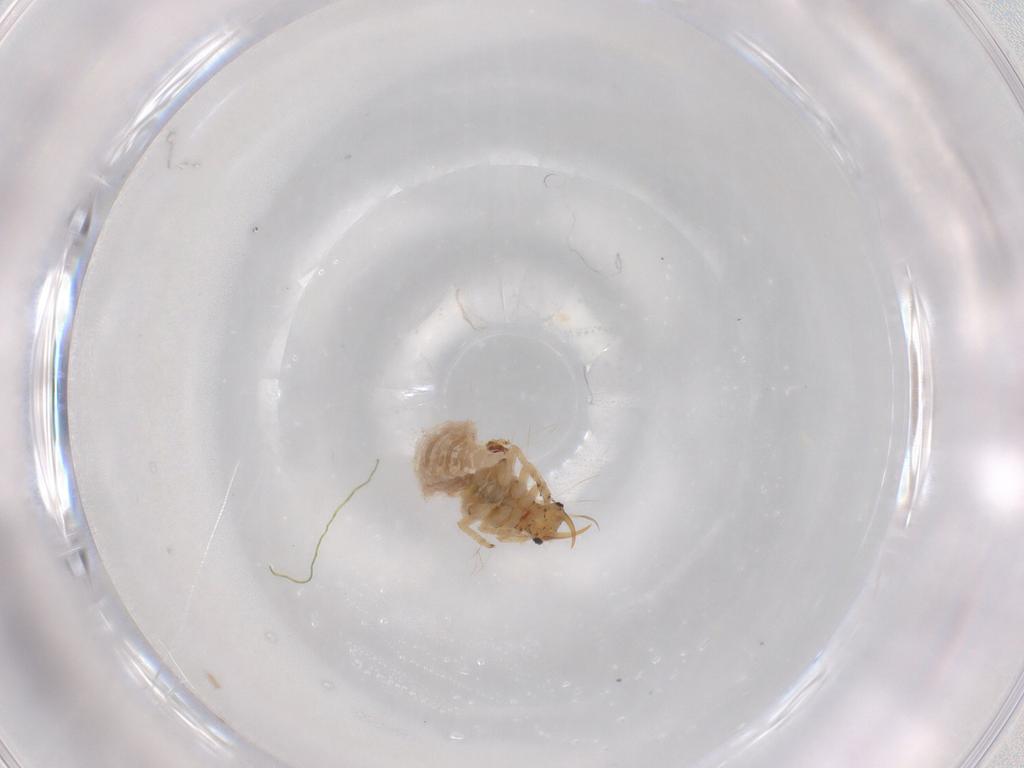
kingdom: Animalia
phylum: Arthropoda
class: Insecta
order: Neuroptera
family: Chrysopidae
